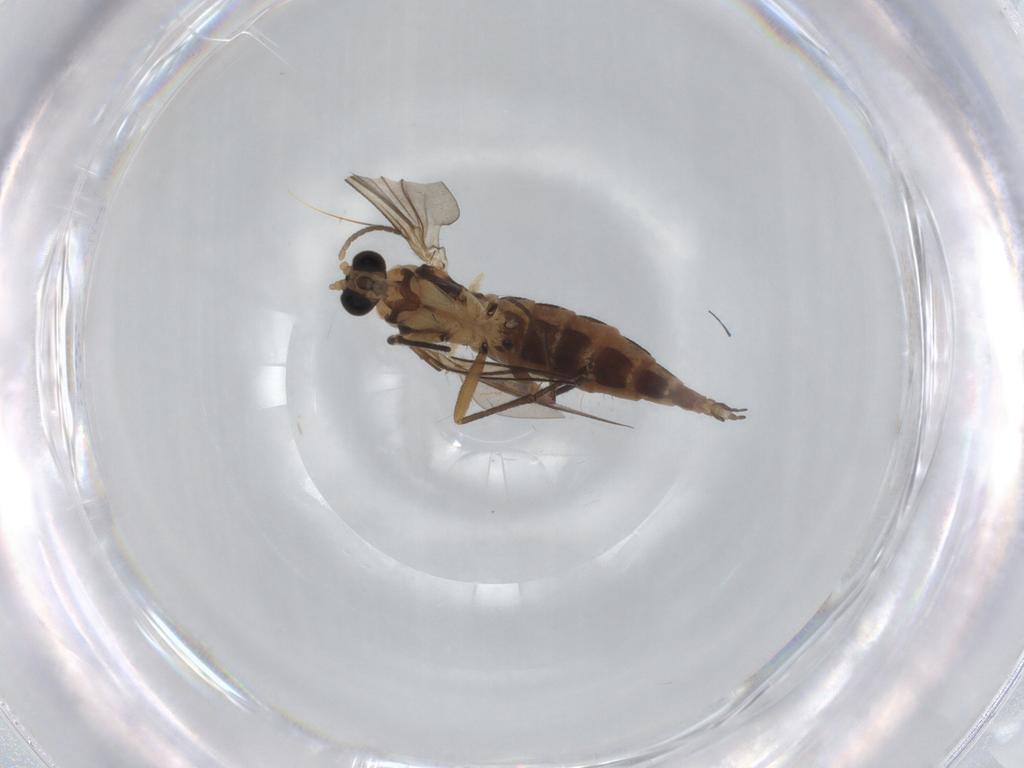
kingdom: Animalia
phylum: Arthropoda
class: Insecta
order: Diptera
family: Sciaridae
